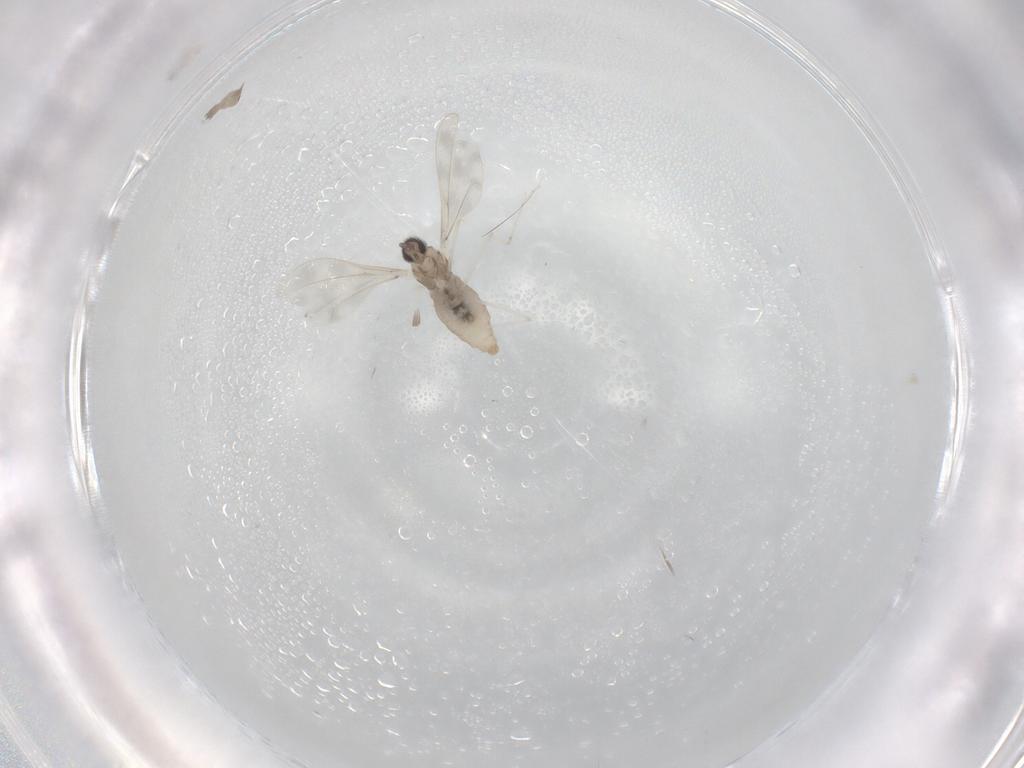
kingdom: Animalia
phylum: Arthropoda
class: Insecta
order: Diptera
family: Cecidomyiidae
